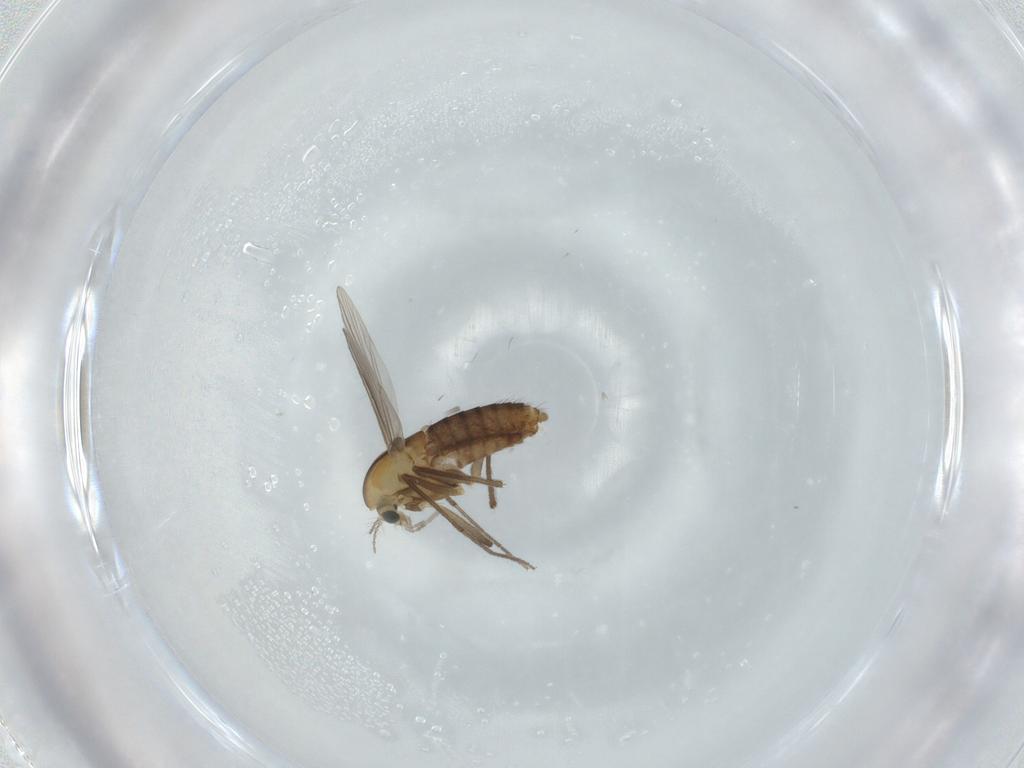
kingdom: Animalia
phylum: Arthropoda
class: Insecta
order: Diptera
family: Chironomidae
